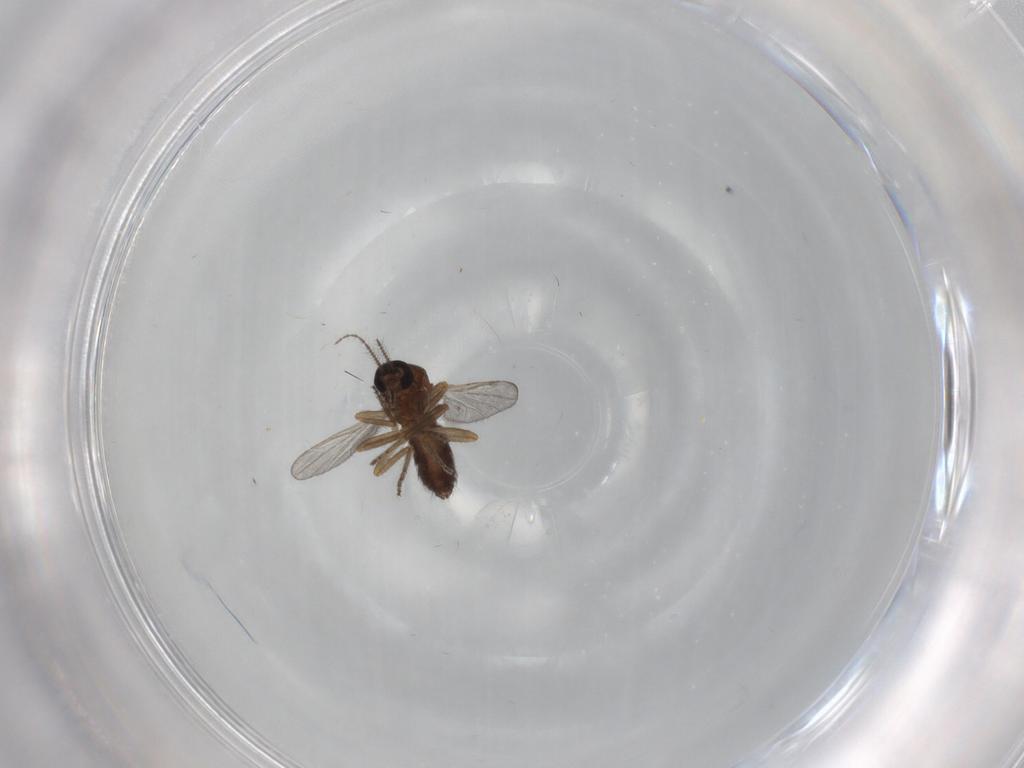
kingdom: Animalia
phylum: Arthropoda
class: Insecta
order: Diptera
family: Ceratopogonidae
